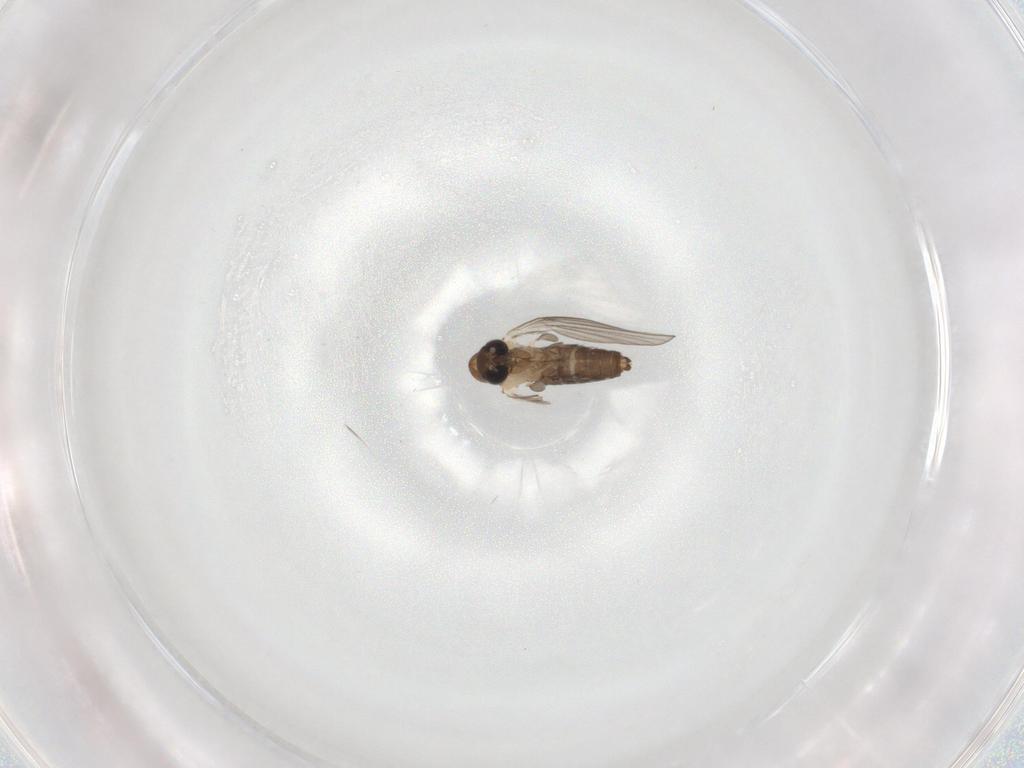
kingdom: Animalia
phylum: Arthropoda
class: Insecta
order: Diptera
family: Psychodidae
